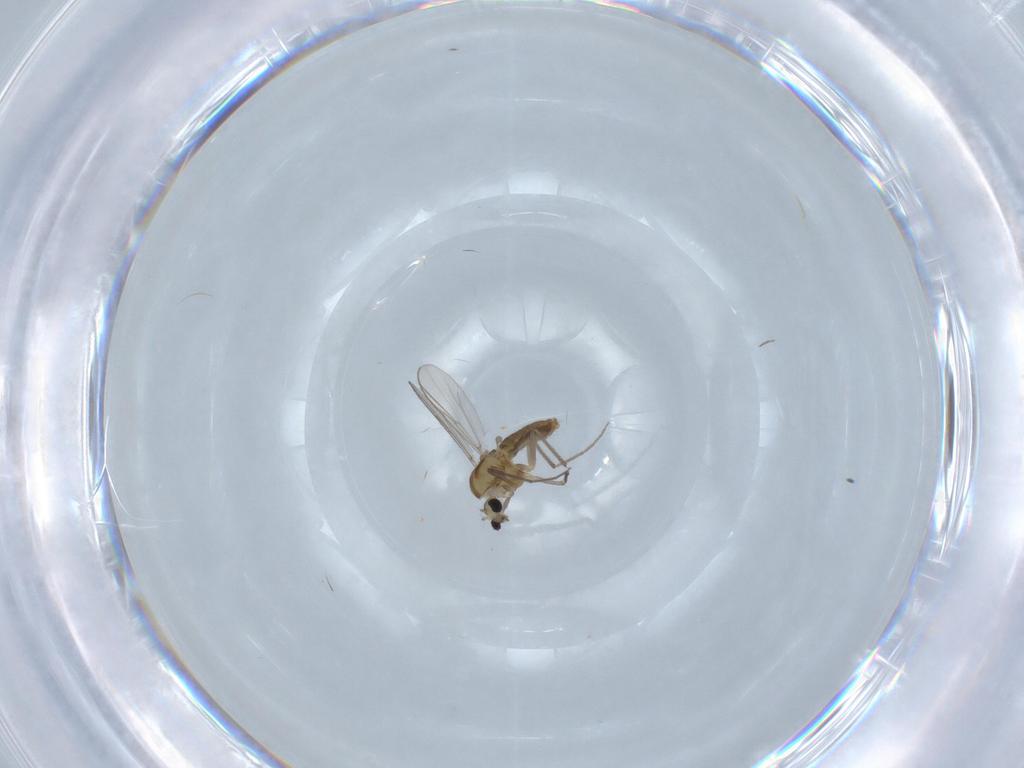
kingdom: Animalia
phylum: Arthropoda
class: Insecta
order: Diptera
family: Chironomidae
